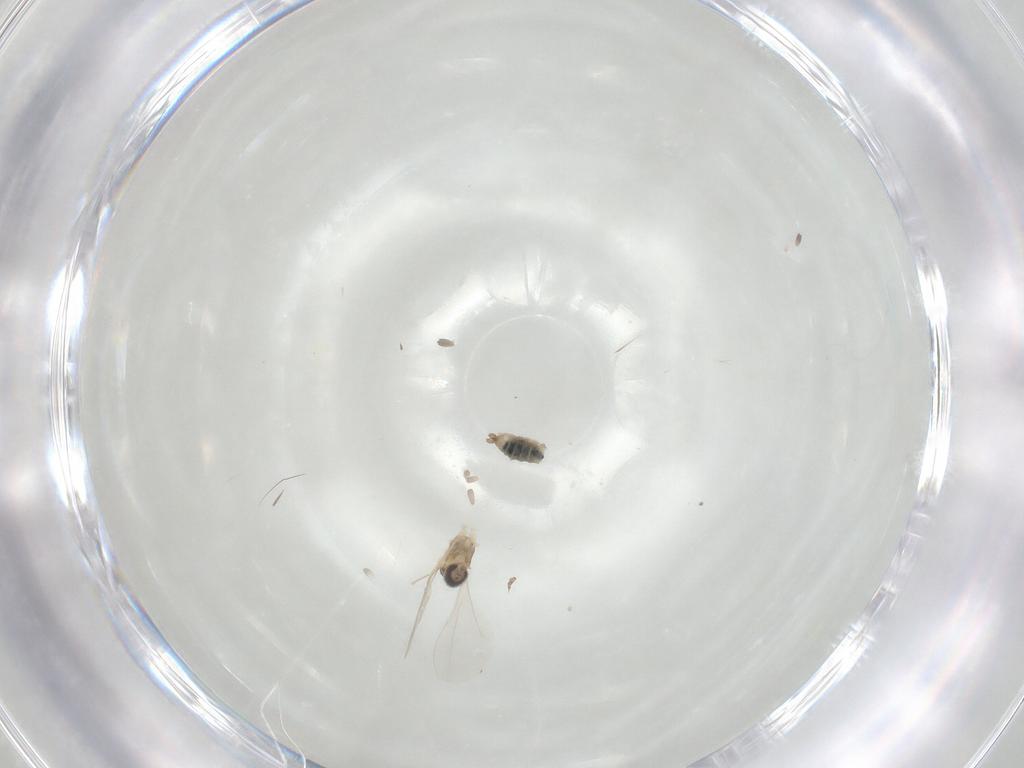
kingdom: Animalia
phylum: Arthropoda
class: Insecta
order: Diptera
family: Cecidomyiidae
